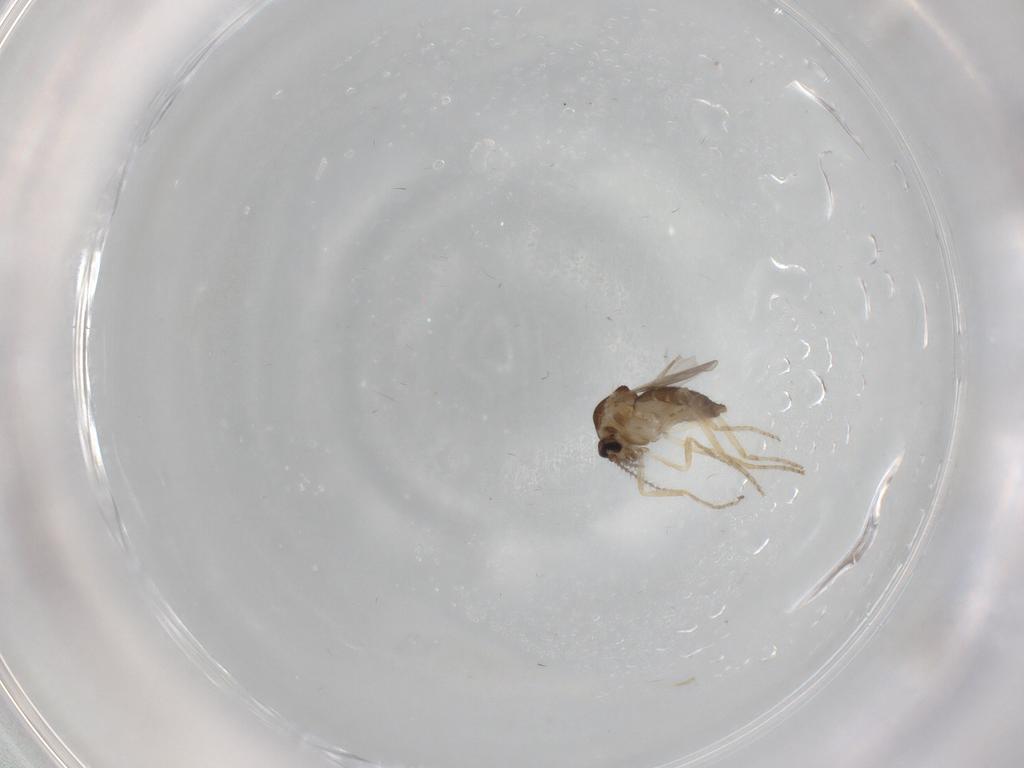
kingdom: Animalia
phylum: Arthropoda
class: Insecta
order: Diptera
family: Ceratopogonidae
